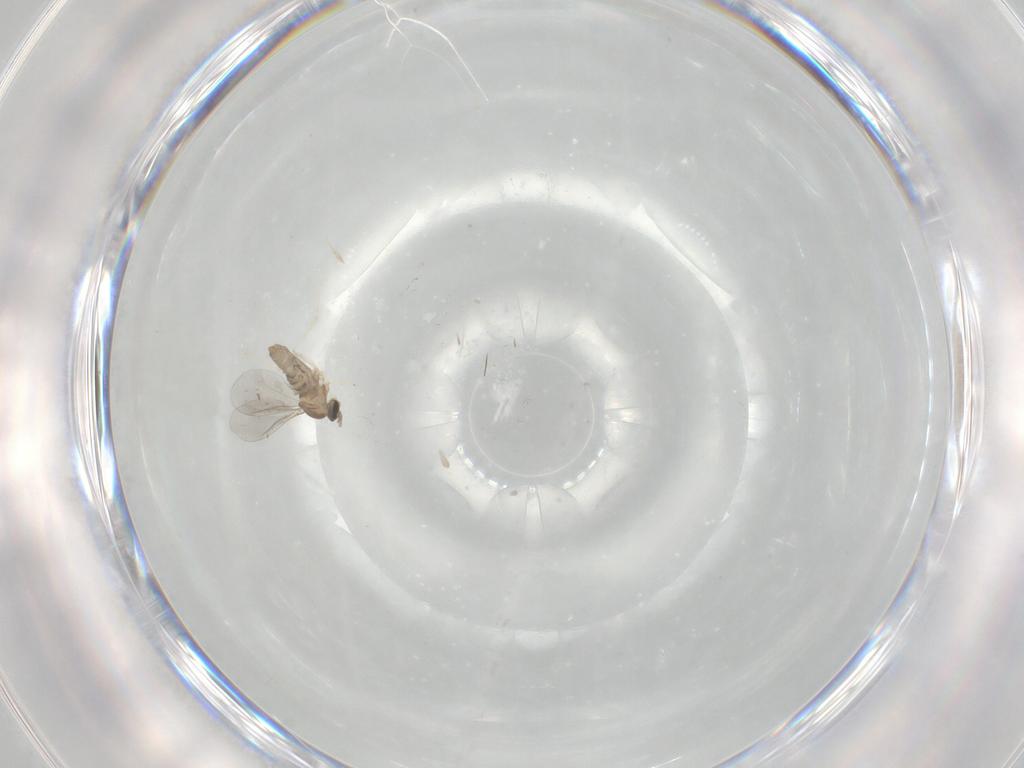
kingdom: Animalia
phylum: Arthropoda
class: Insecta
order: Diptera
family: Cecidomyiidae
